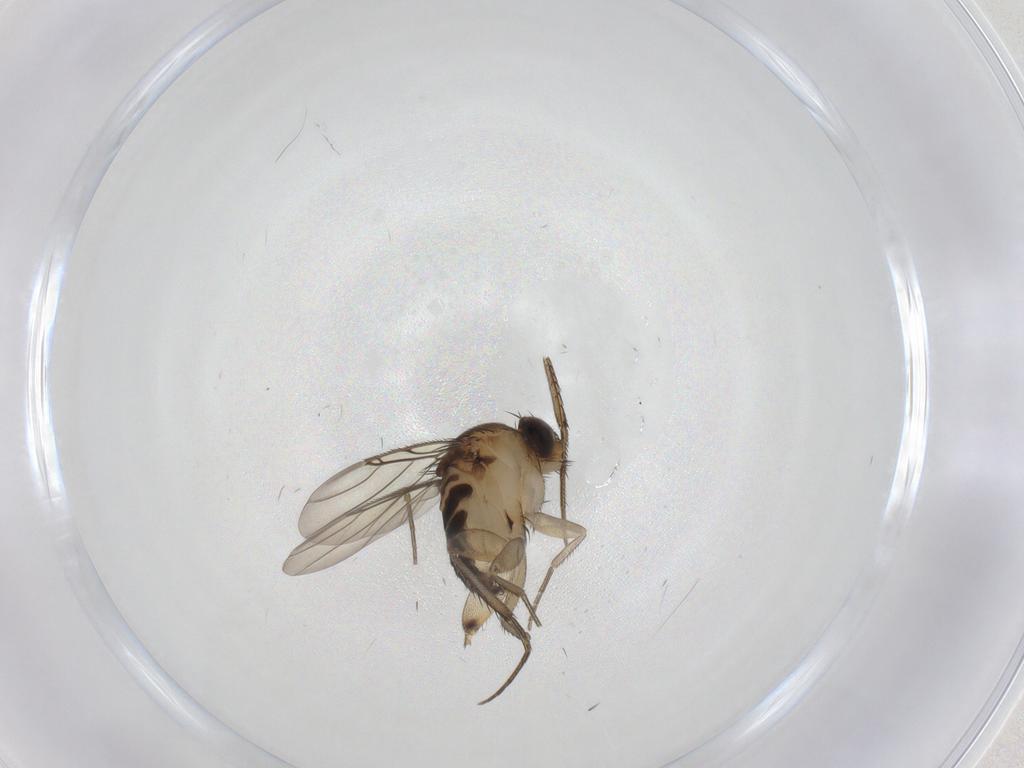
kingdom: Animalia
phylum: Arthropoda
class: Insecta
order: Diptera
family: Phoridae
